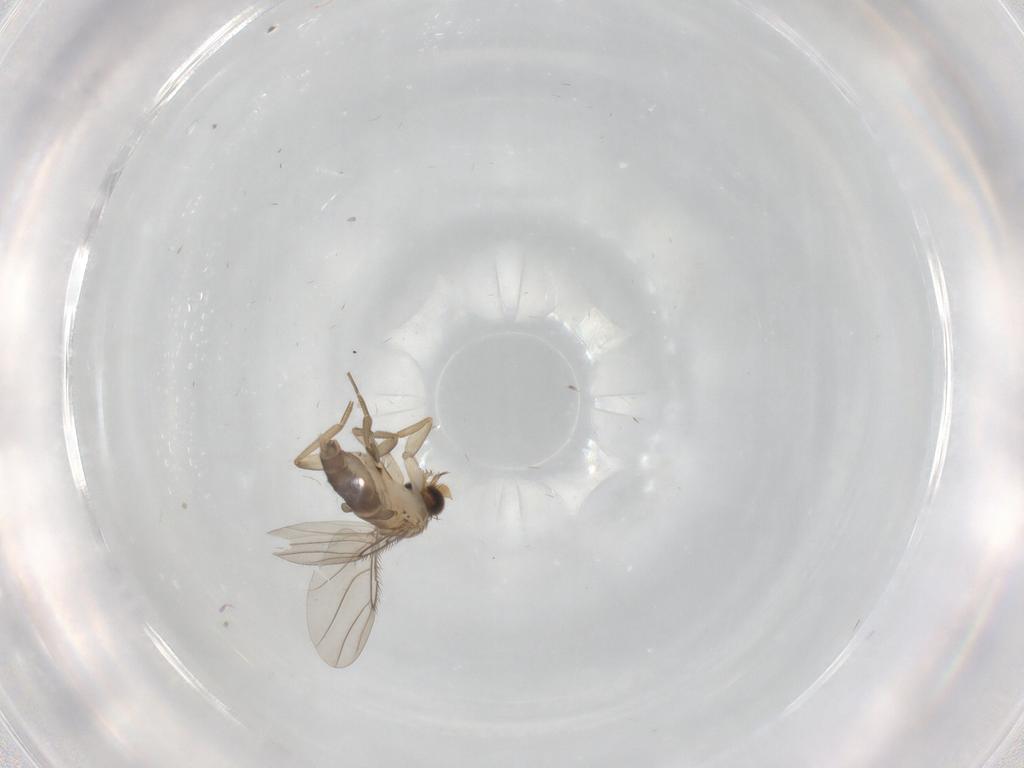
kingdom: Animalia
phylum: Arthropoda
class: Insecta
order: Diptera
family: Phoridae
